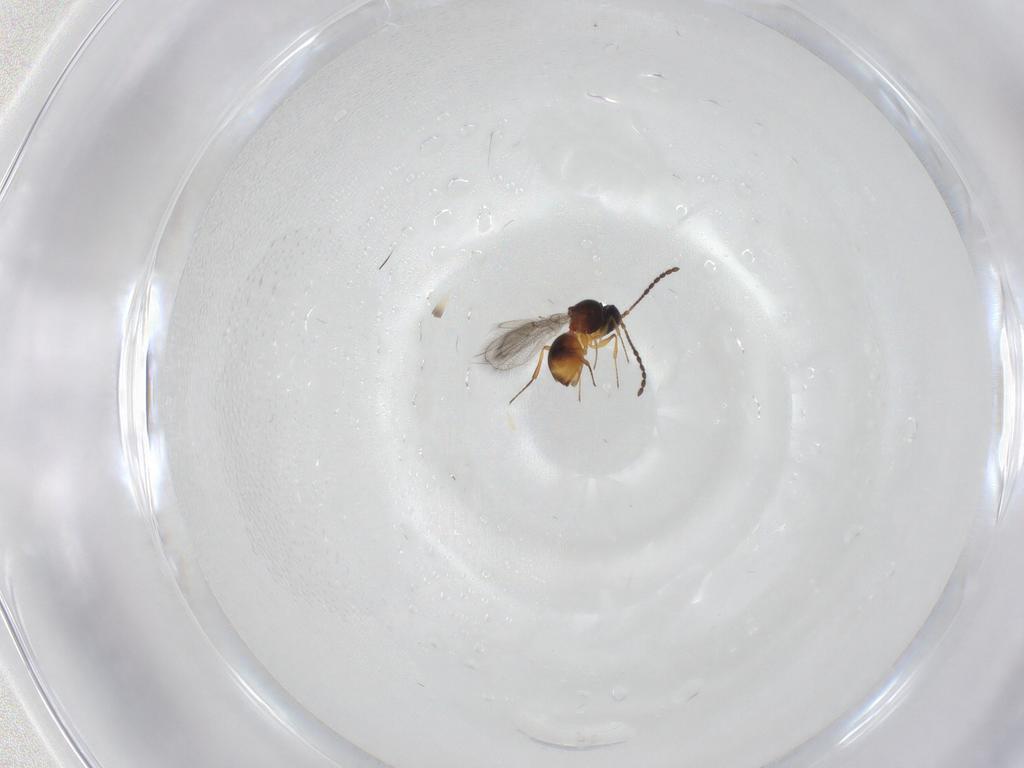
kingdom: Animalia
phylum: Arthropoda
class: Insecta
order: Hymenoptera
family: Figitidae
